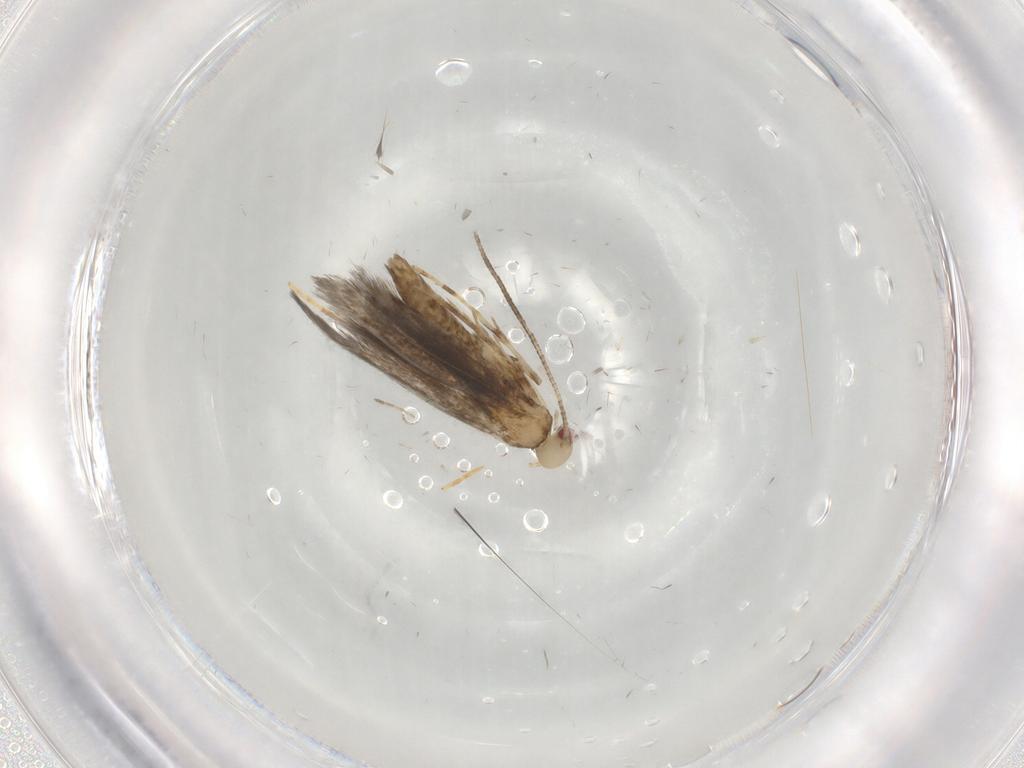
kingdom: Animalia
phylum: Arthropoda
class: Insecta
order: Lepidoptera
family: Gracillariidae
